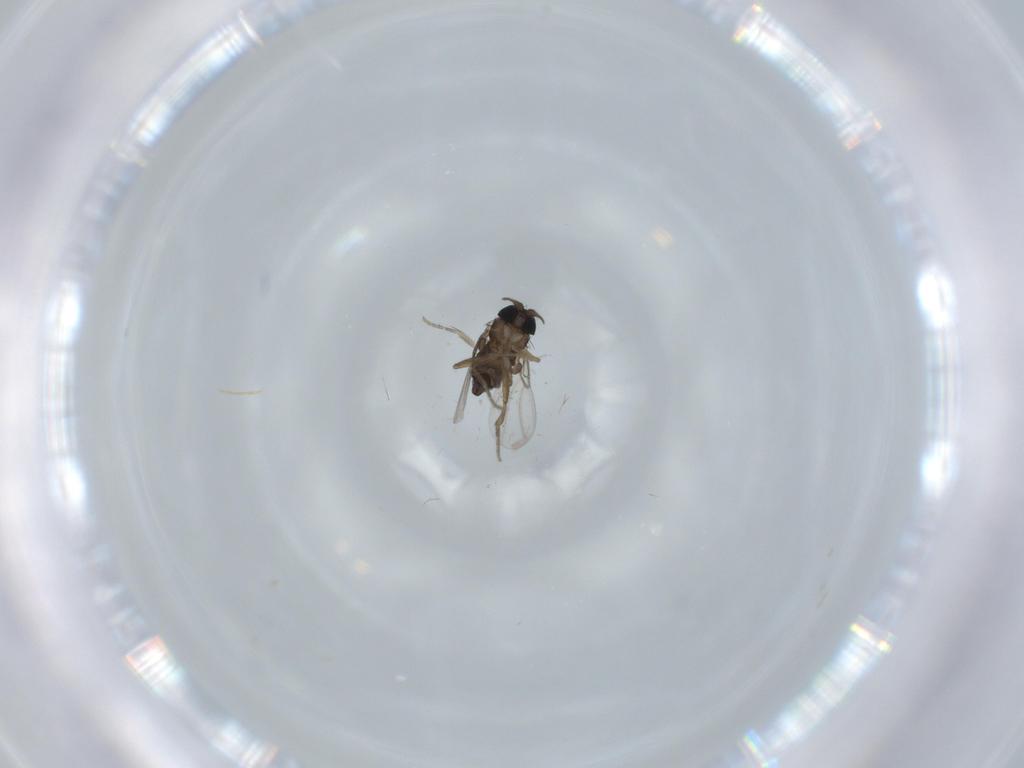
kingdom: Animalia
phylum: Arthropoda
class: Insecta
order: Diptera
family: Phoridae
